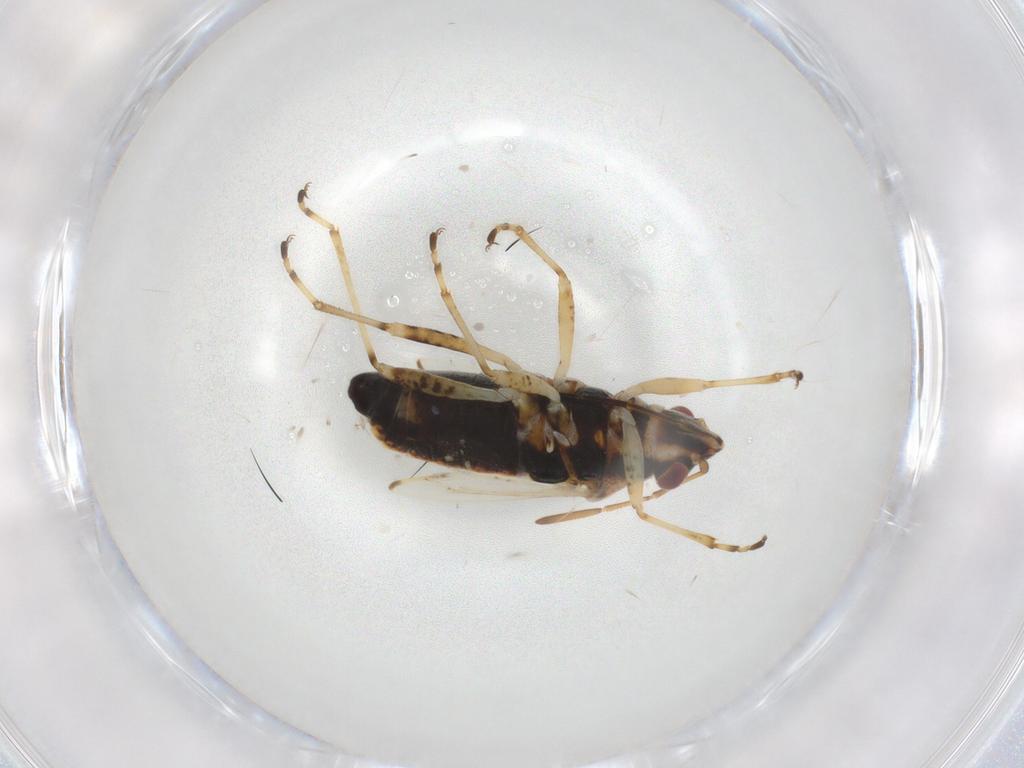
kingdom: Animalia
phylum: Arthropoda
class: Insecta
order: Hemiptera
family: Lygaeidae
